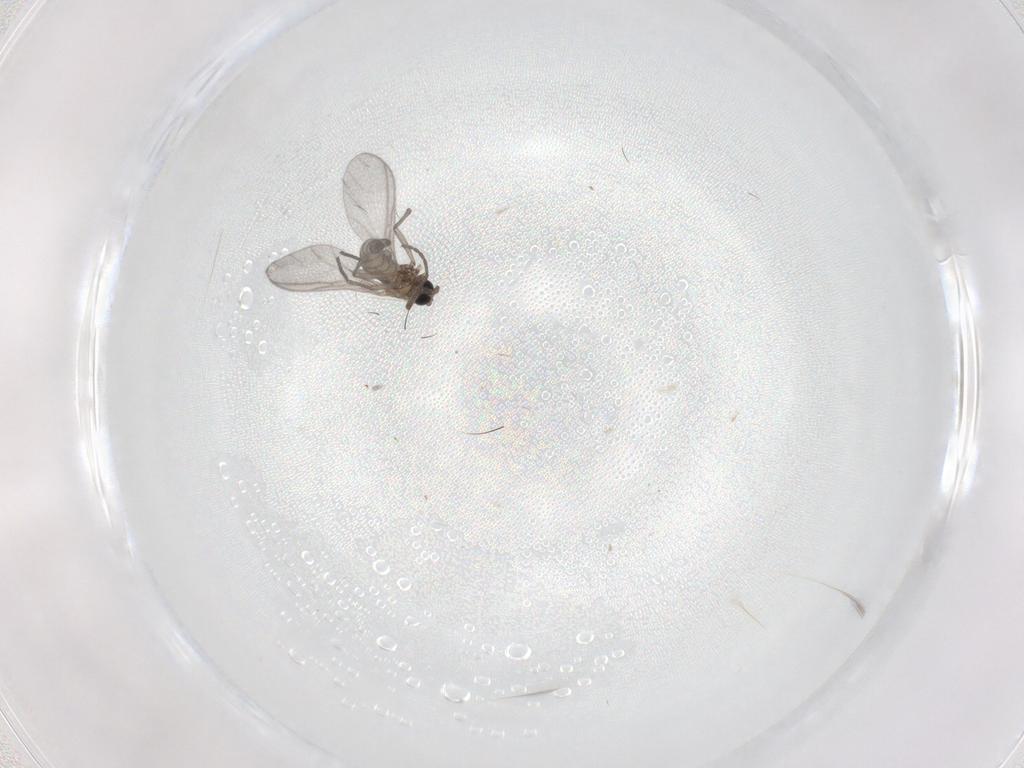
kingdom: Animalia
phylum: Arthropoda
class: Insecta
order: Diptera
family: Sciaridae
